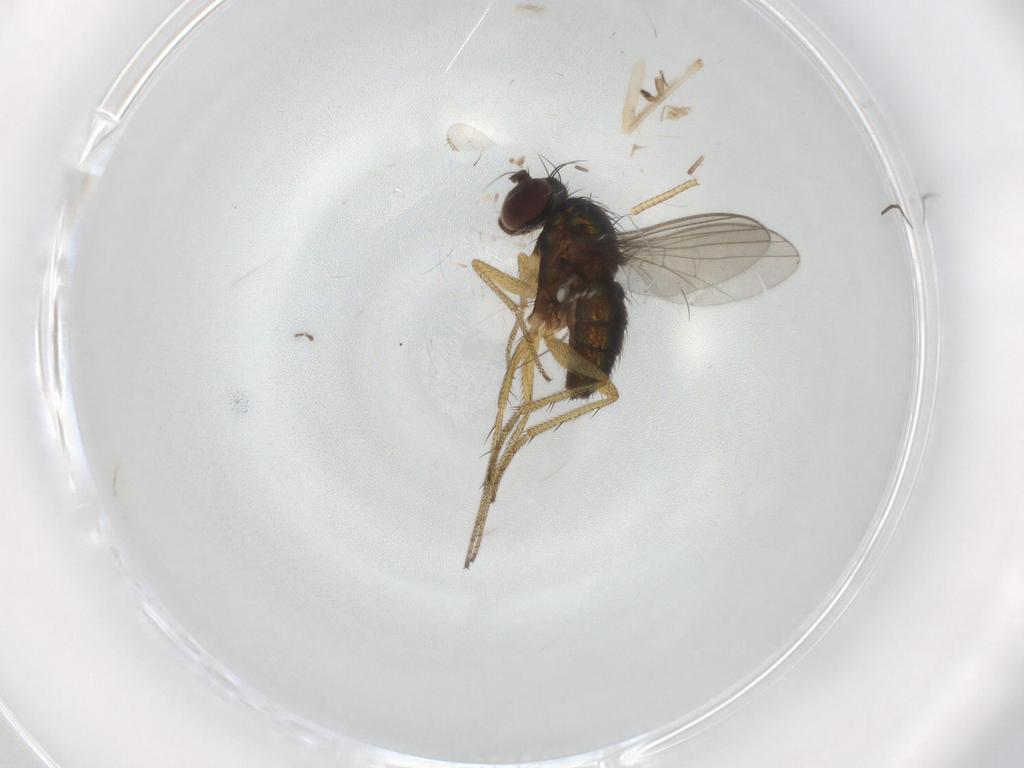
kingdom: Animalia
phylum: Arthropoda
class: Insecta
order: Diptera
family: Chironomidae
